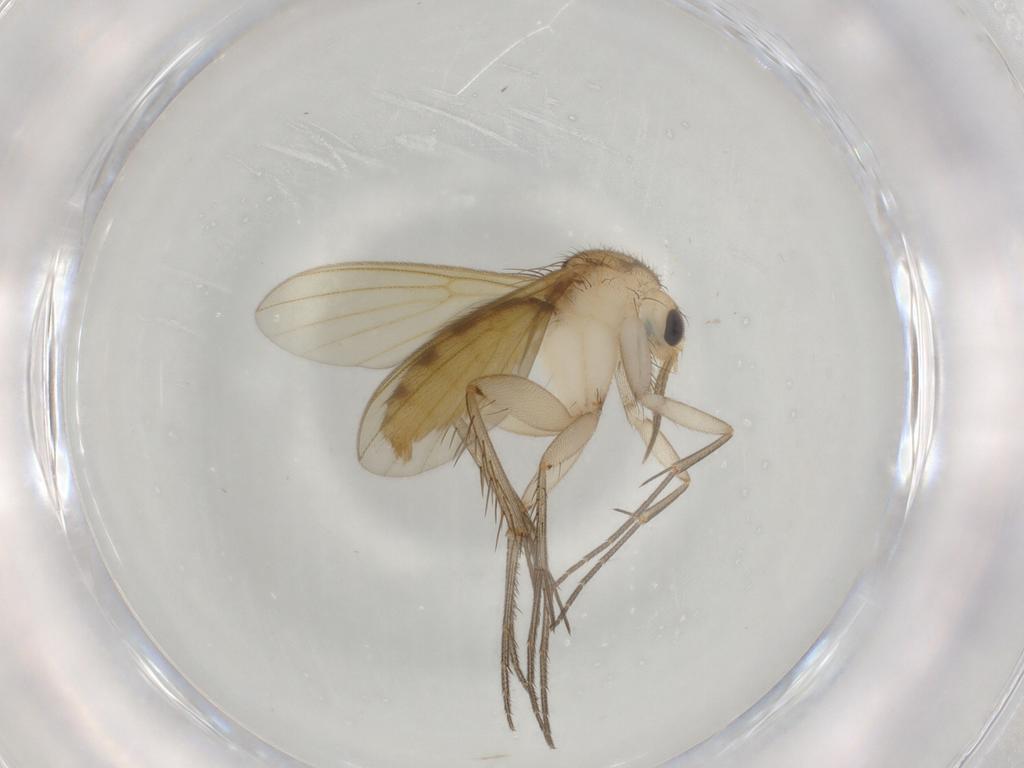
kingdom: Animalia
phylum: Arthropoda
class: Insecta
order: Diptera
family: Mycetophilidae
